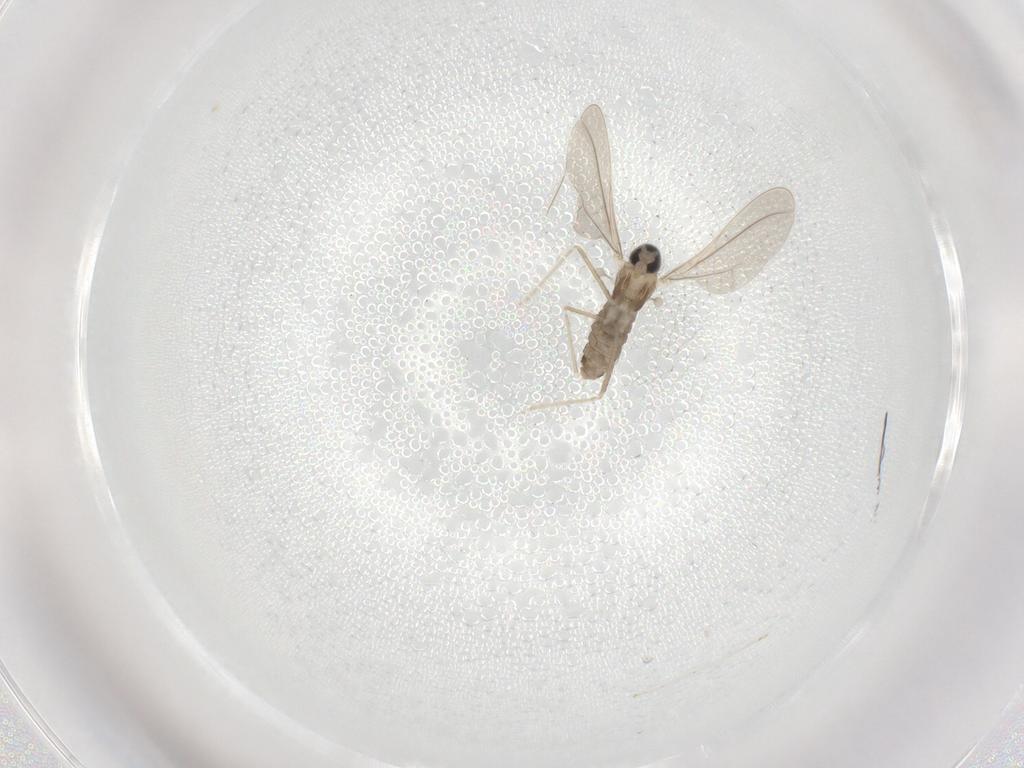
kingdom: Animalia
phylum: Arthropoda
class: Insecta
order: Diptera
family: Cecidomyiidae
